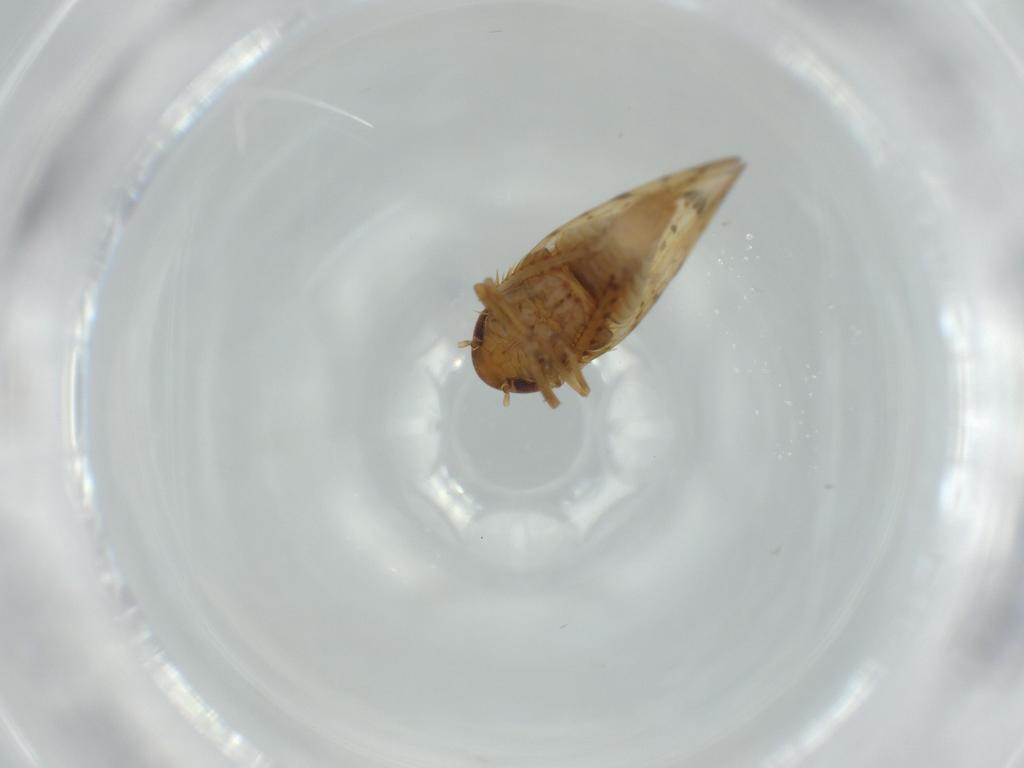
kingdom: Animalia
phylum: Arthropoda
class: Insecta
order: Hemiptera
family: Cicadellidae
